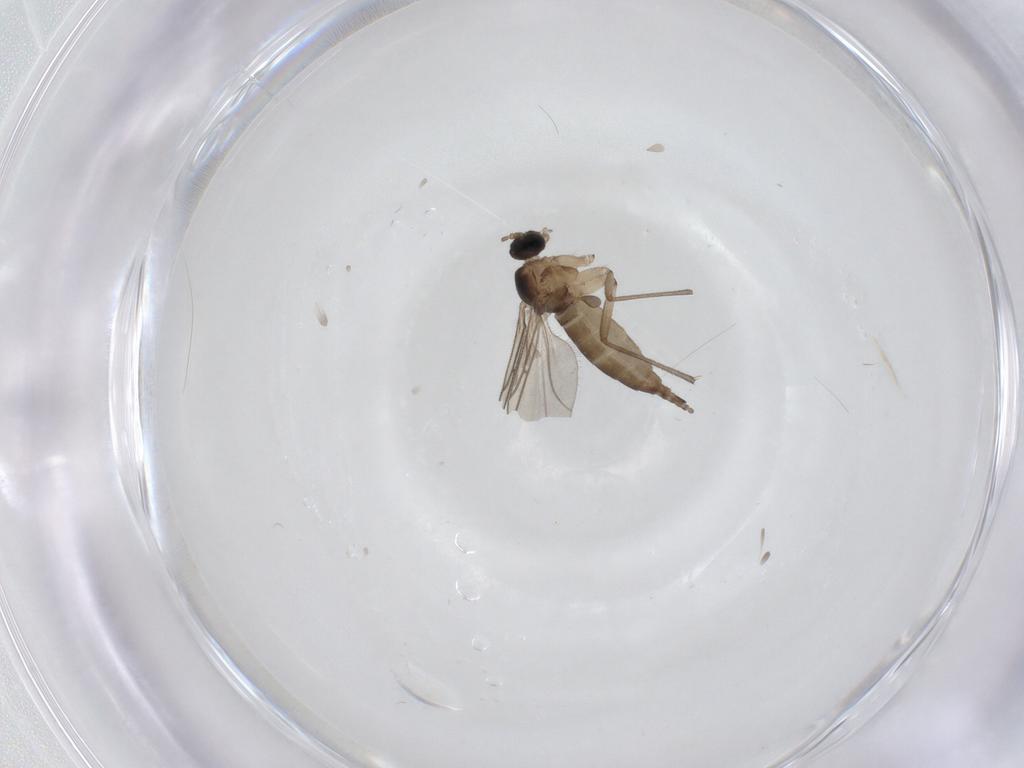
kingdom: Animalia
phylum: Arthropoda
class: Insecta
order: Diptera
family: Sciaridae
